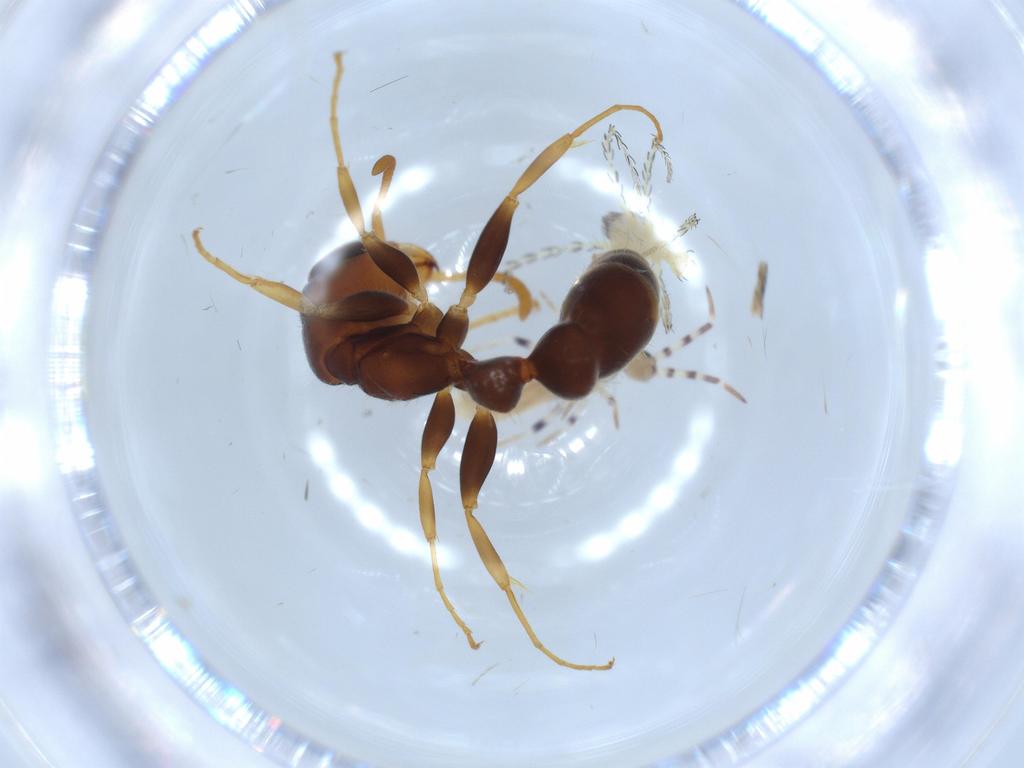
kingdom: Animalia
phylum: Arthropoda
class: Collembola
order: Entomobryomorpha
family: Entomobryidae
